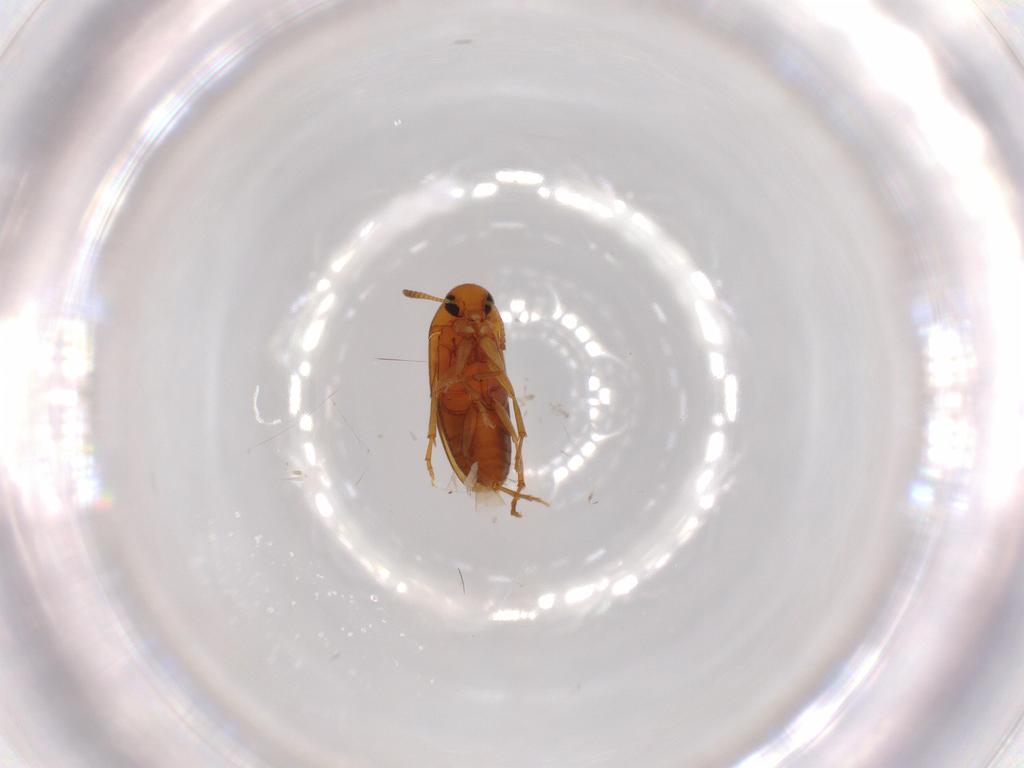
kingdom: Animalia
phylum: Arthropoda
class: Insecta
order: Coleoptera
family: Scraptiidae
